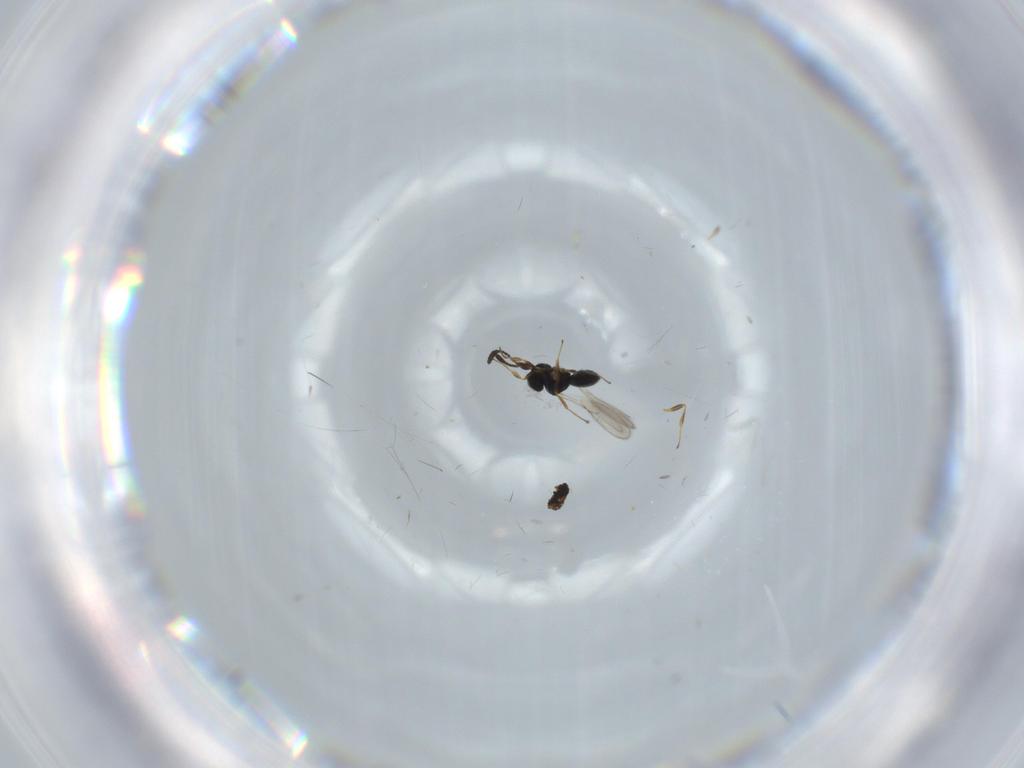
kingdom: Animalia
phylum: Arthropoda
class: Insecta
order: Hymenoptera
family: Scelionidae
